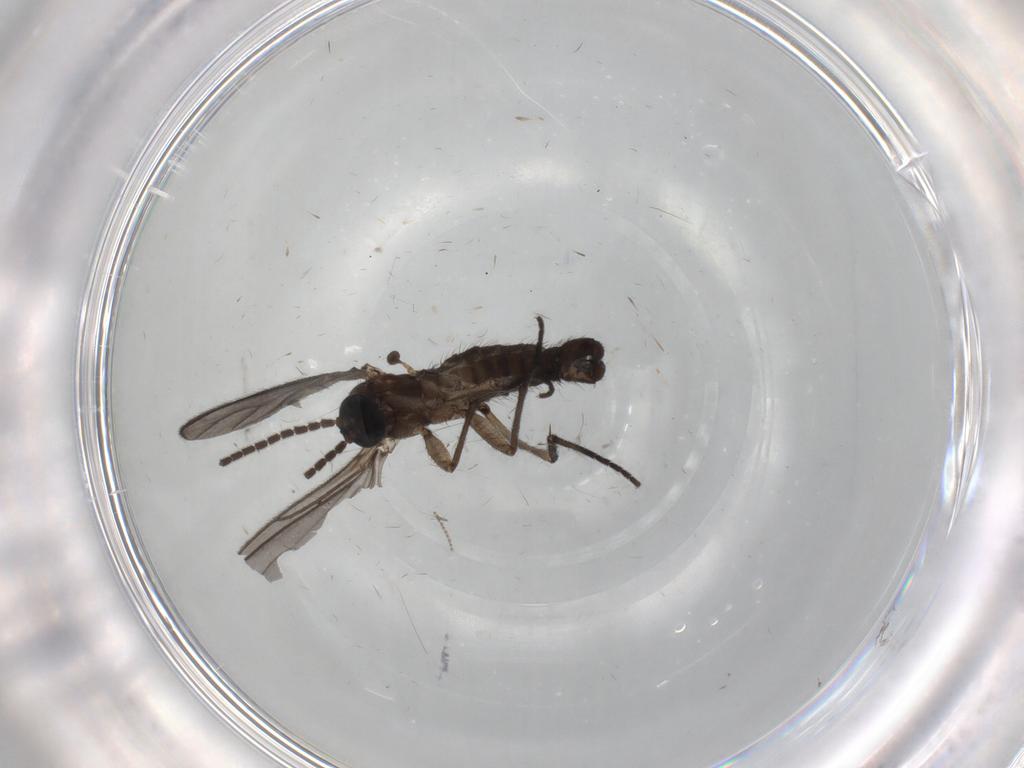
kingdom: Animalia
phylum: Arthropoda
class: Insecta
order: Diptera
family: Sciaridae
